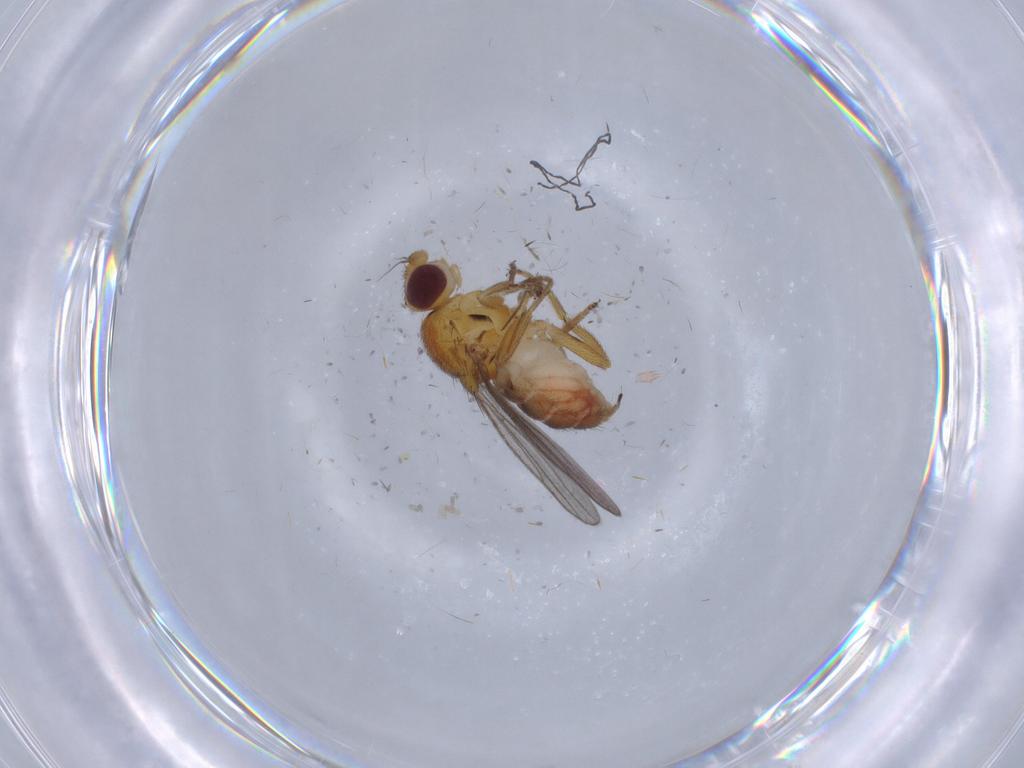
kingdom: Animalia
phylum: Arthropoda
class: Insecta
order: Diptera
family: Chloropidae
